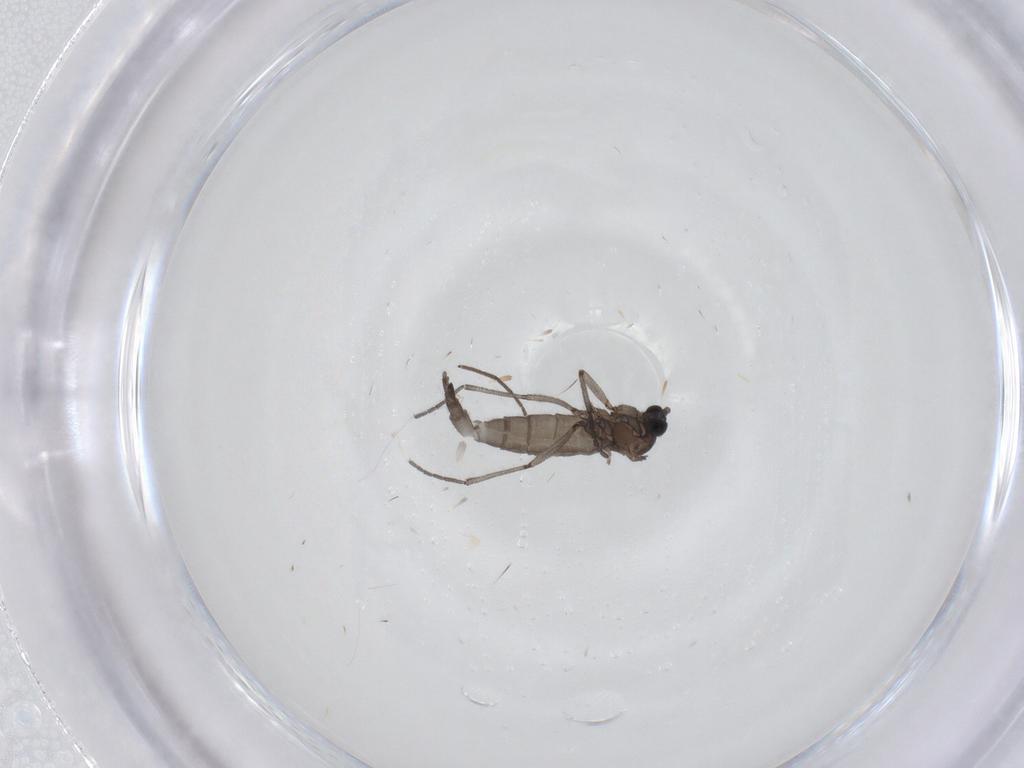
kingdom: Animalia
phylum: Arthropoda
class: Insecta
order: Diptera
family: Sciaridae
